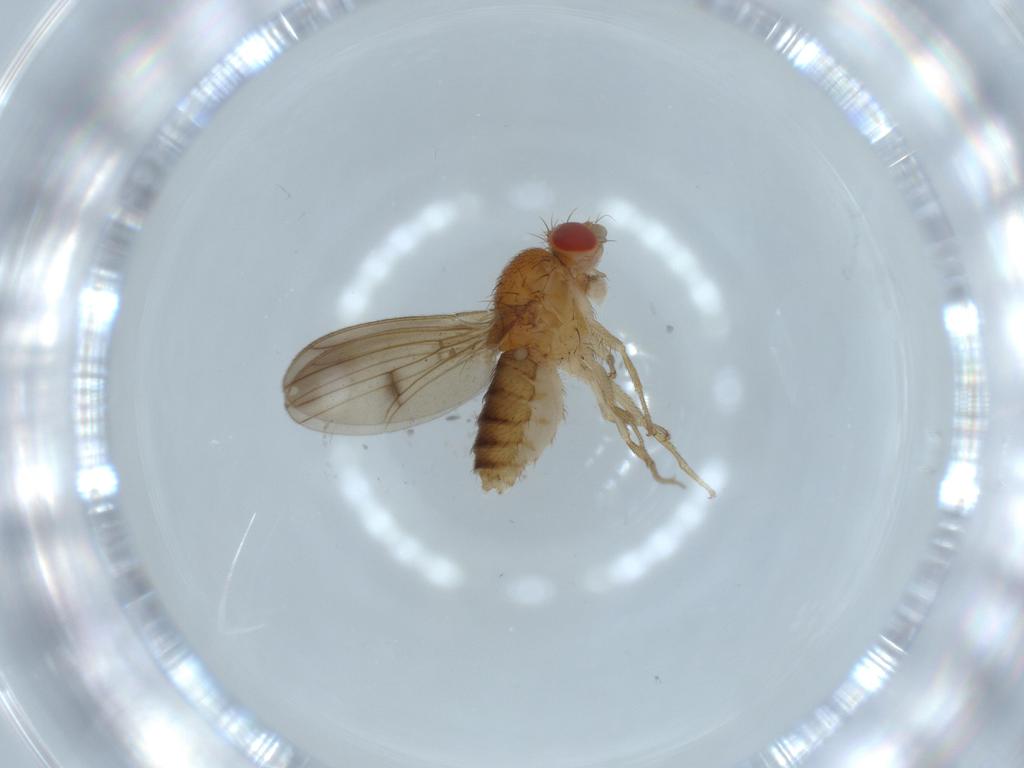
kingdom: Animalia
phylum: Arthropoda
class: Insecta
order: Diptera
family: Drosophilidae
